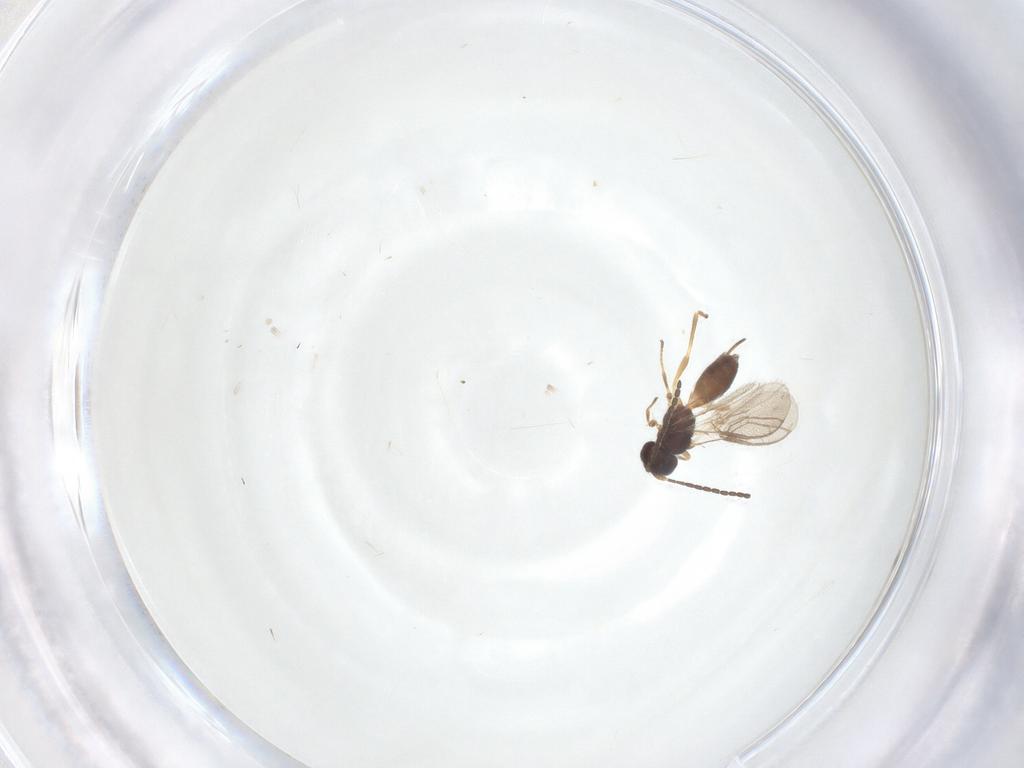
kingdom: Animalia
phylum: Arthropoda
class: Insecta
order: Hymenoptera
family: Braconidae
